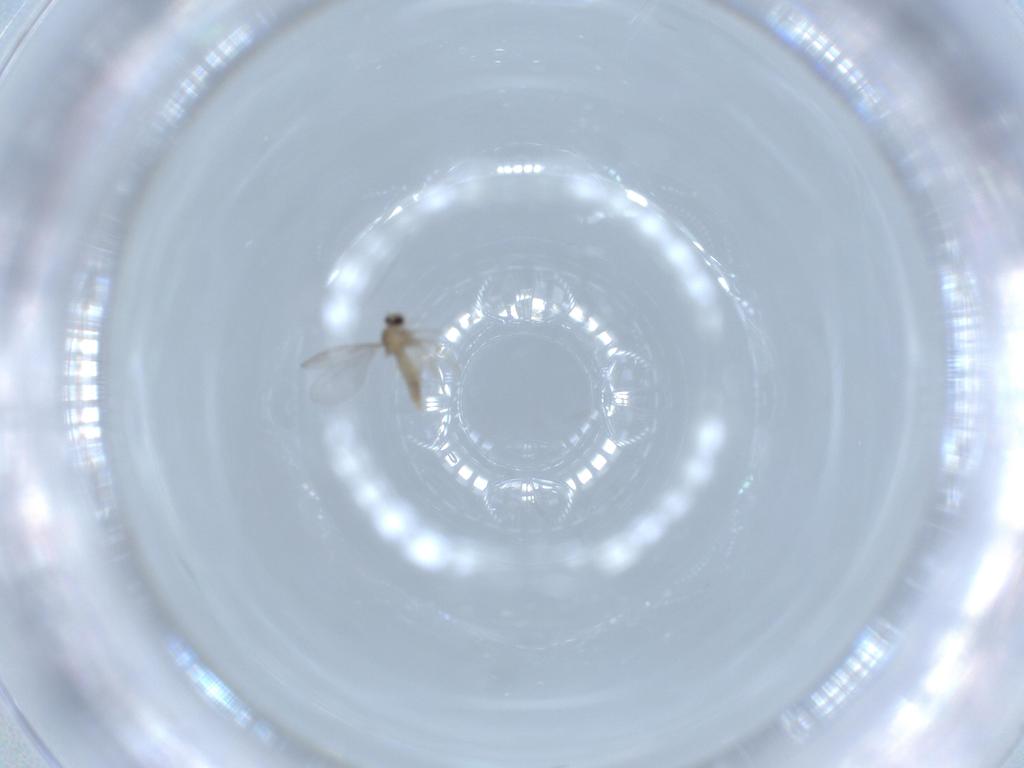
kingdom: Animalia
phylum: Arthropoda
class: Insecta
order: Diptera
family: Cecidomyiidae
